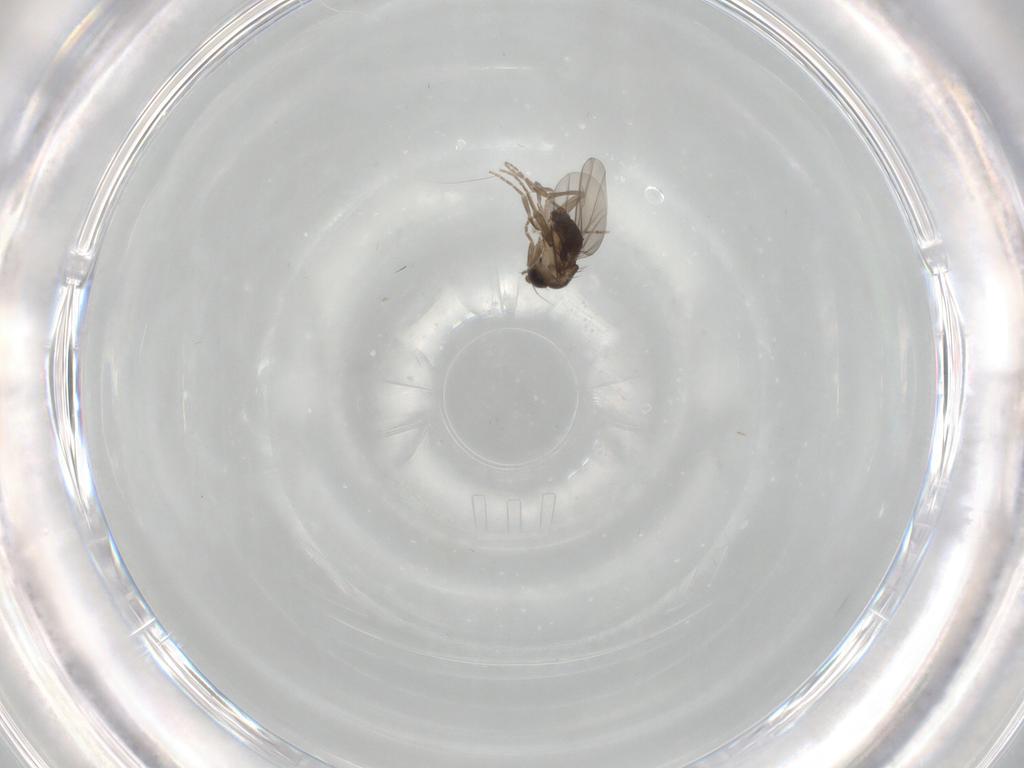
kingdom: Animalia
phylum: Arthropoda
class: Insecta
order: Diptera
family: Phoridae
